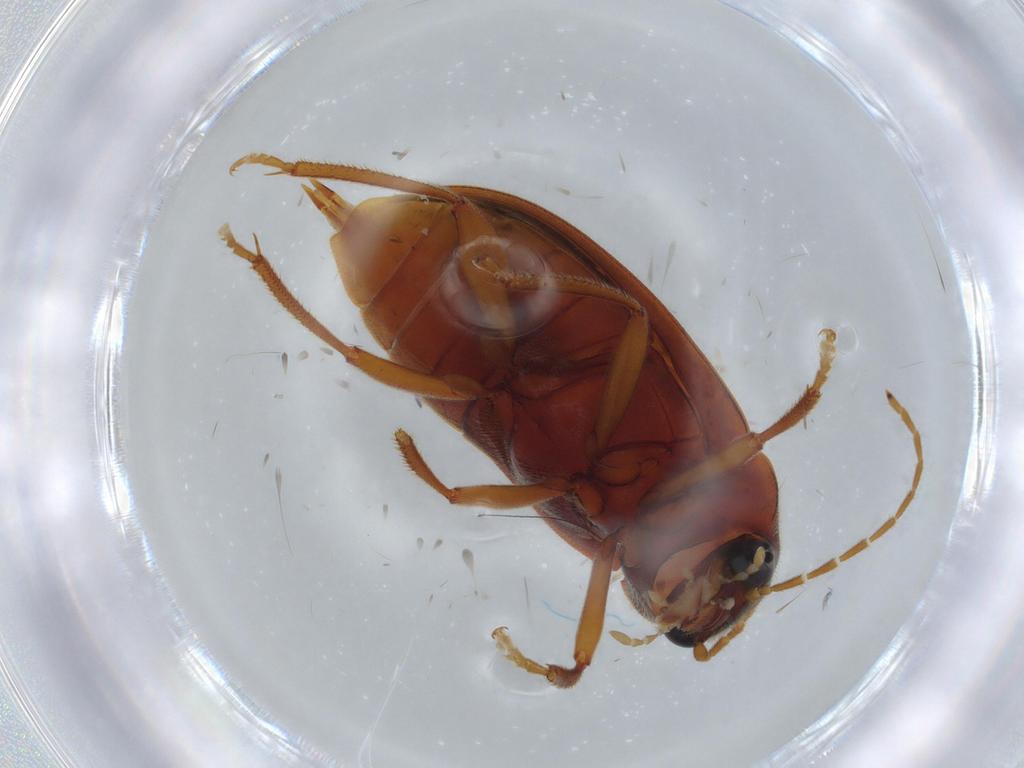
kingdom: Animalia
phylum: Arthropoda
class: Insecta
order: Coleoptera
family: Ptilodactylidae
